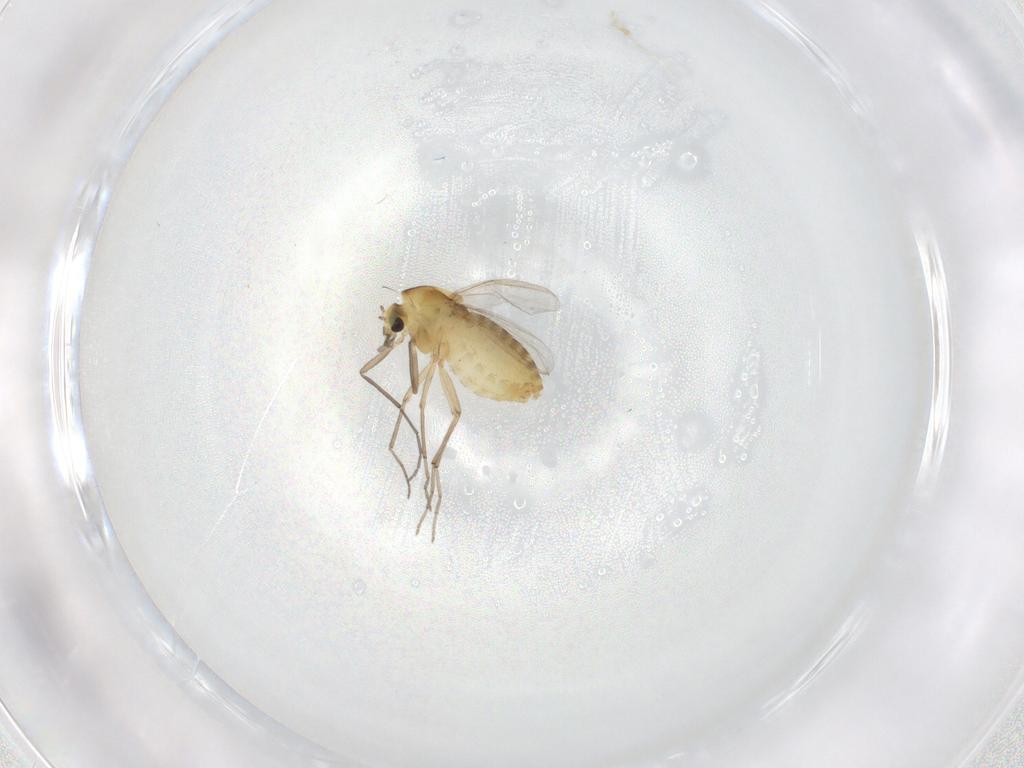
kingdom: Animalia
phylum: Arthropoda
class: Insecta
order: Diptera
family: Chironomidae
